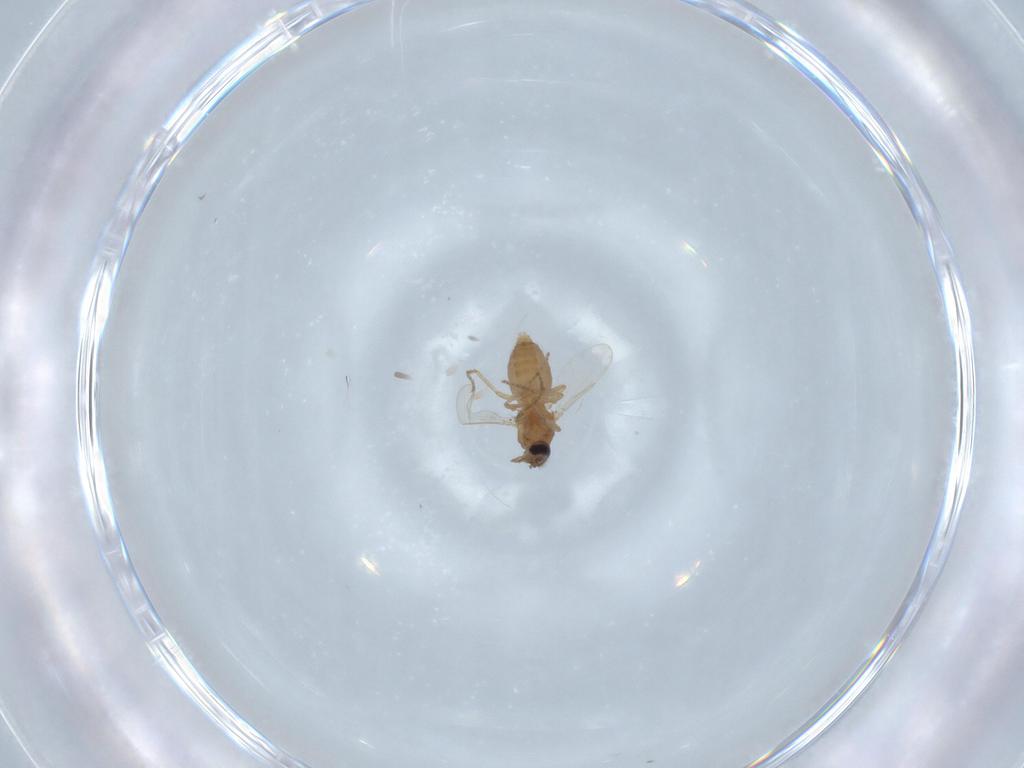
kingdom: Animalia
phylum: Arthropoda
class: Insecta
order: Diptera
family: Ceratopogonidae
